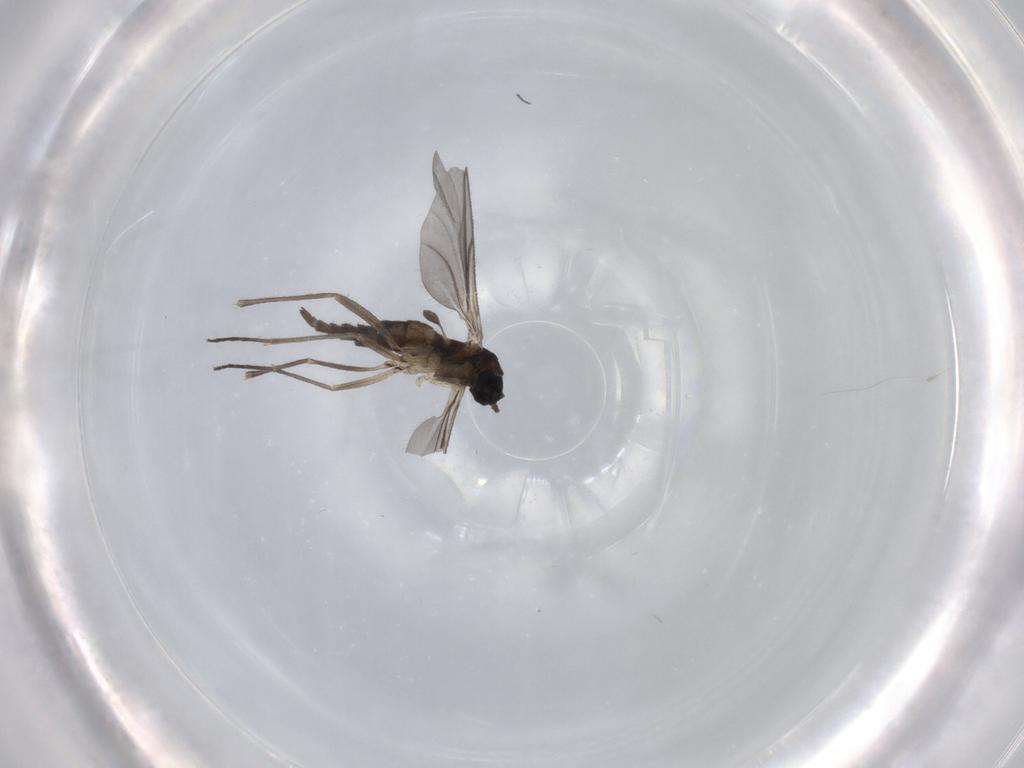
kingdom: Animalia
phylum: Arthropoda
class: Insecta
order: Diptera
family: Sciaridae
